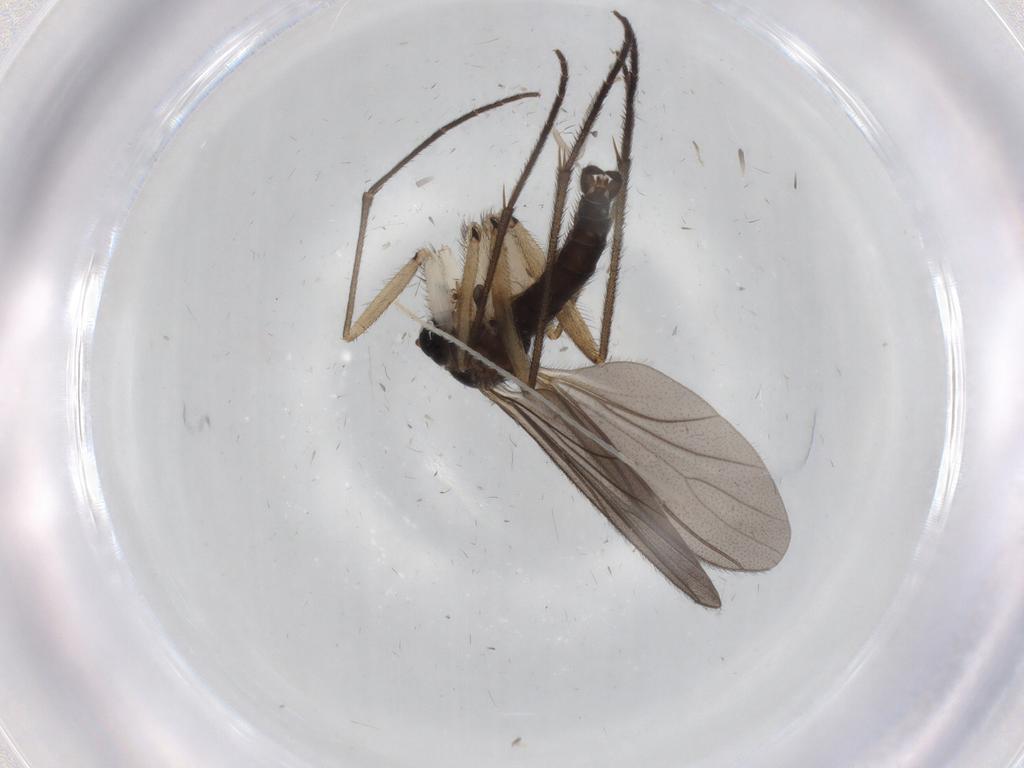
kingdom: Animalia
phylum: Arthropoda
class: Insecta
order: Diptera
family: Sciaridae
